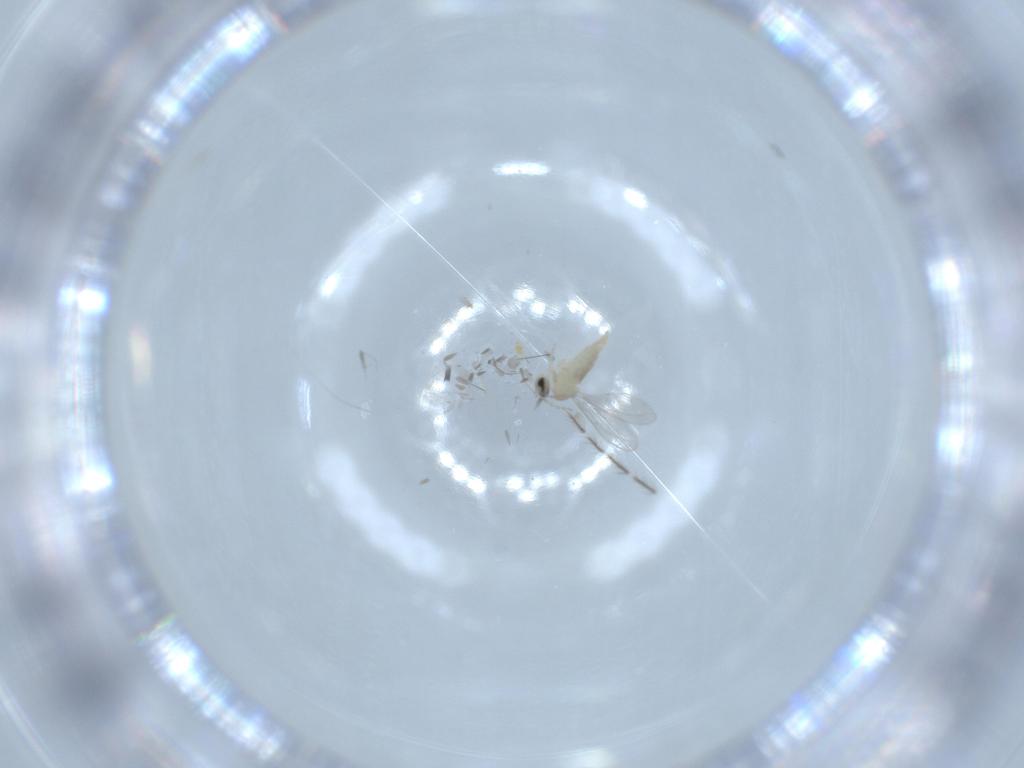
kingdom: Animalia
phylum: Arthropoda
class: Insecta
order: Diptera
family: Cecidomyiidae
